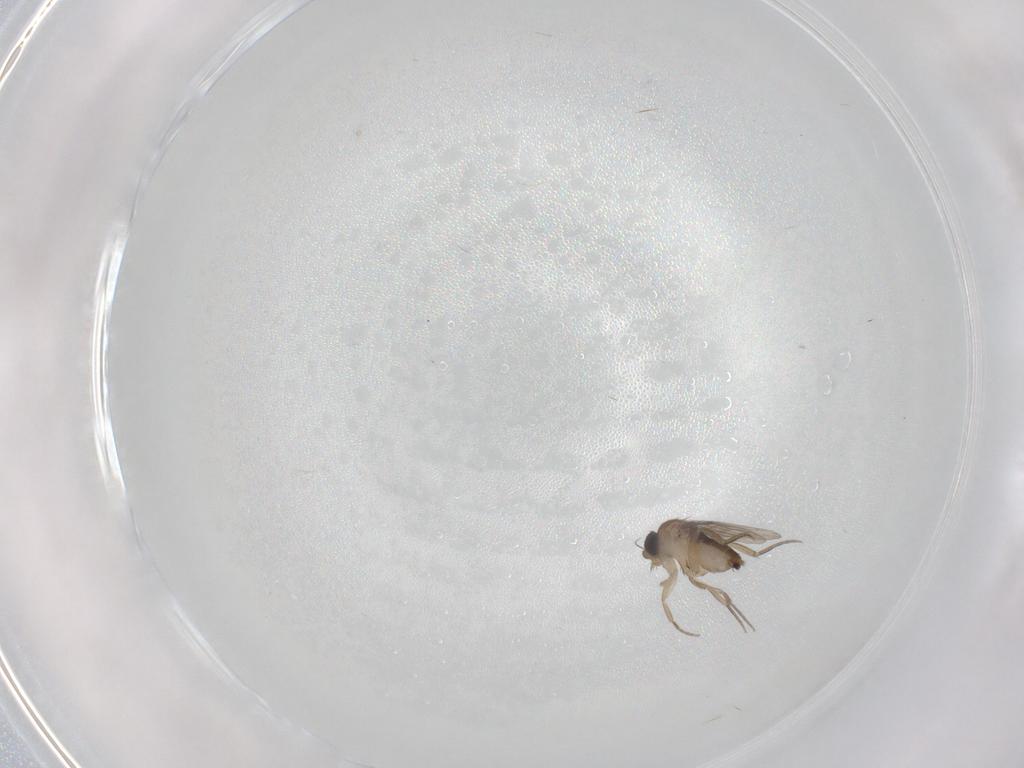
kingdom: Animalia
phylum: Arthropoda
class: Insecta
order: Diptera
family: Phoridae
